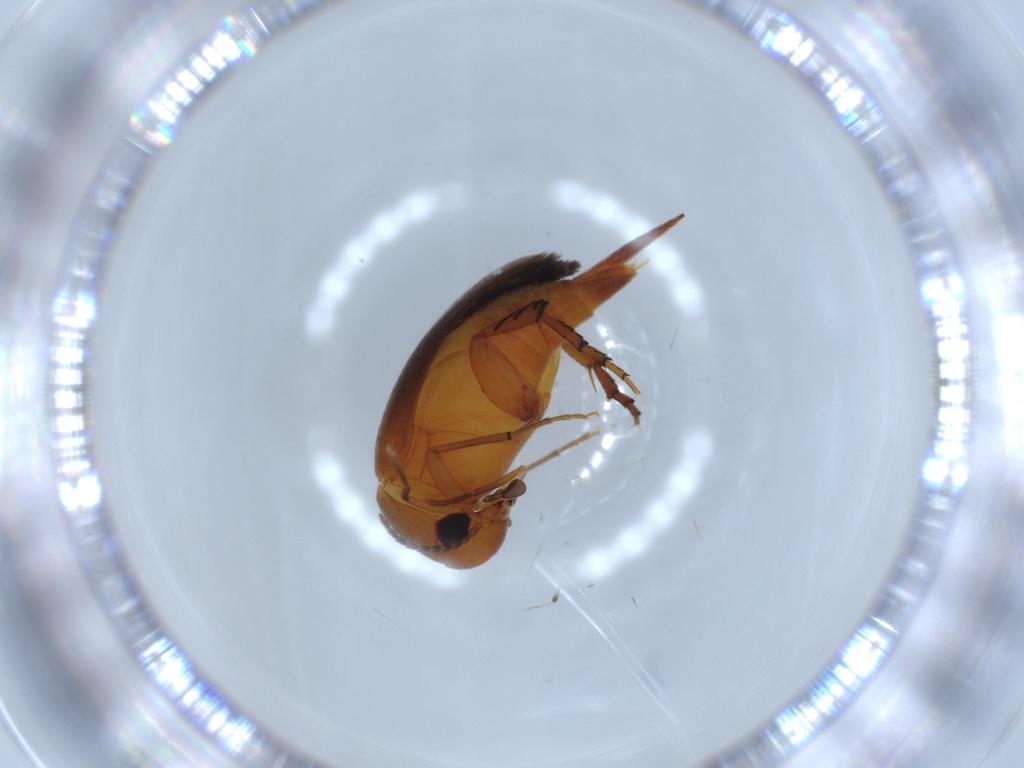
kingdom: Animalia
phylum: Arthropoda
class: Insecta
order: Coleoptera
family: Mordellidae
